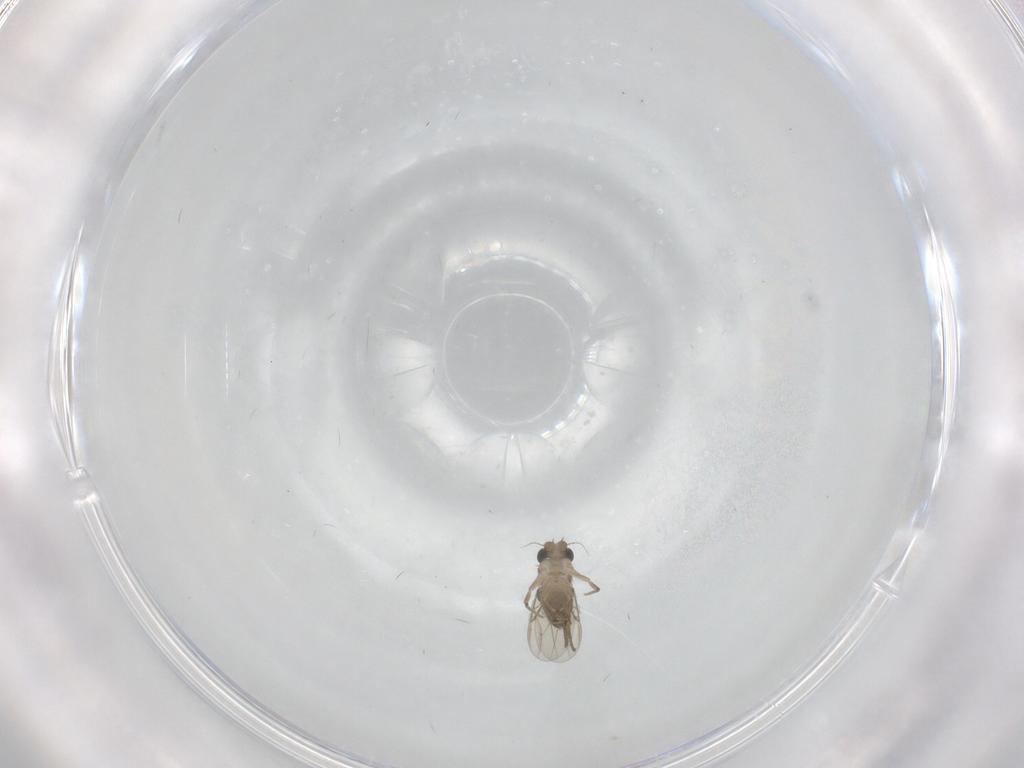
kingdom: Animalia
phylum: Arthropoda
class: Insecta
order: Diptera
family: Phoridae
